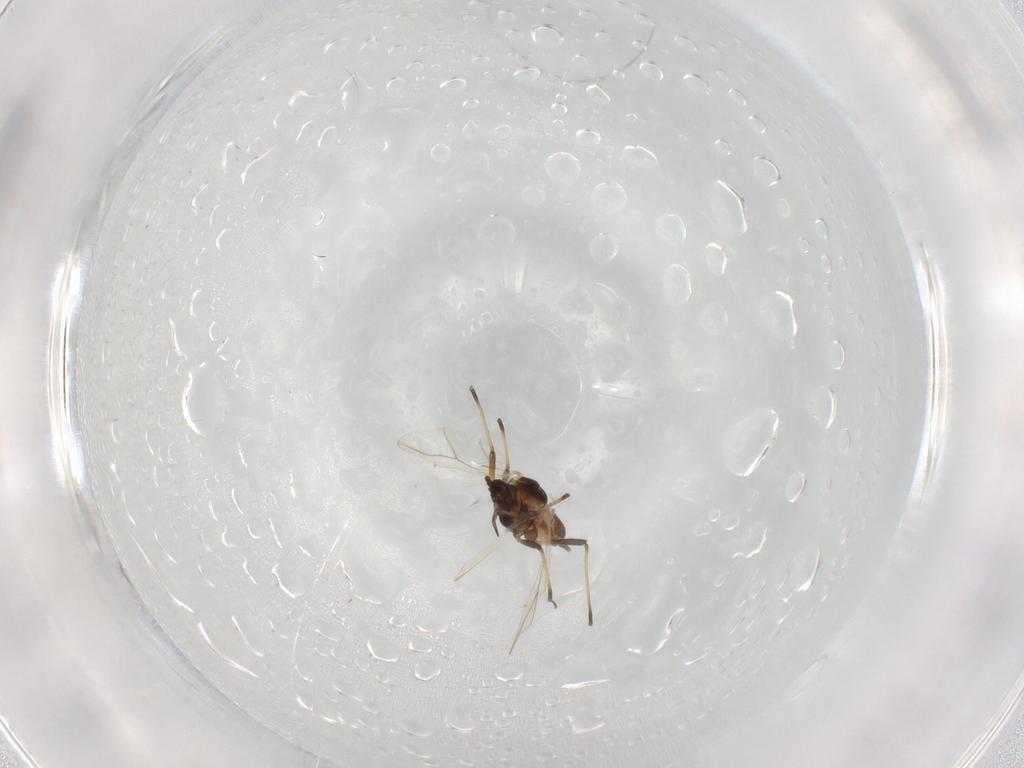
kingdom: Animalia
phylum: Arthropoda
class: Insecta
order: Hemiptera
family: Aphididae
